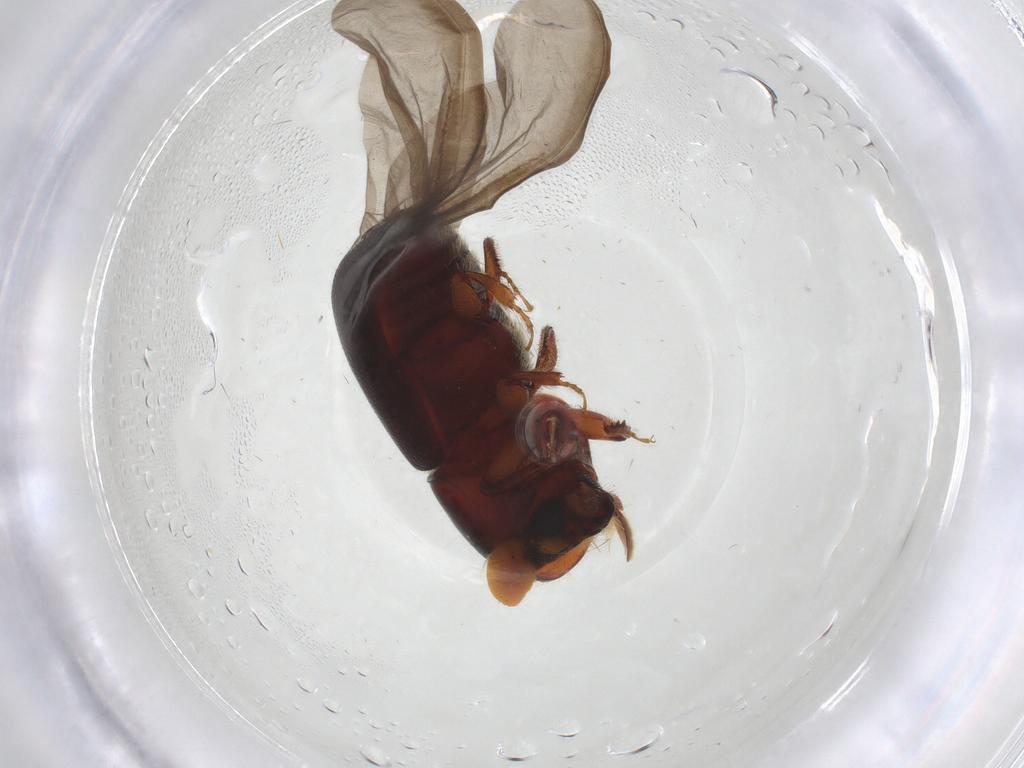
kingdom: Animalia
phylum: Arthropoda
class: Insecta
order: Coleoptera
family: Curculionidae
